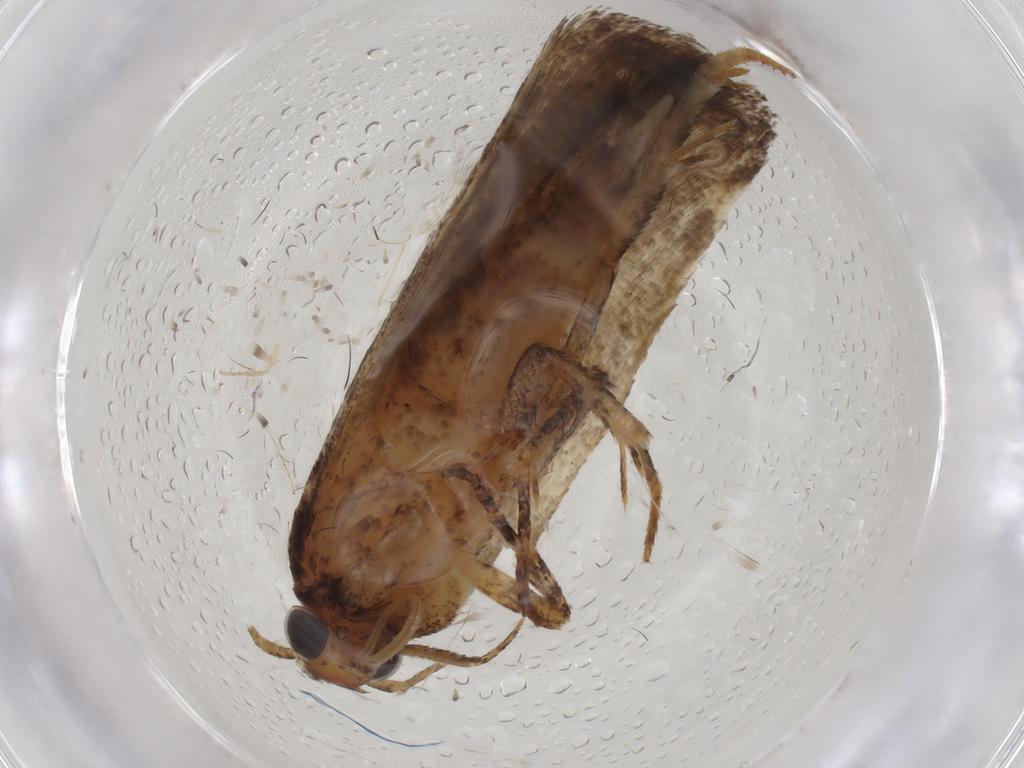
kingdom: Animalia
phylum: Arthropoda
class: Insecta
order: Lepidoptera
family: Gelechiidae
